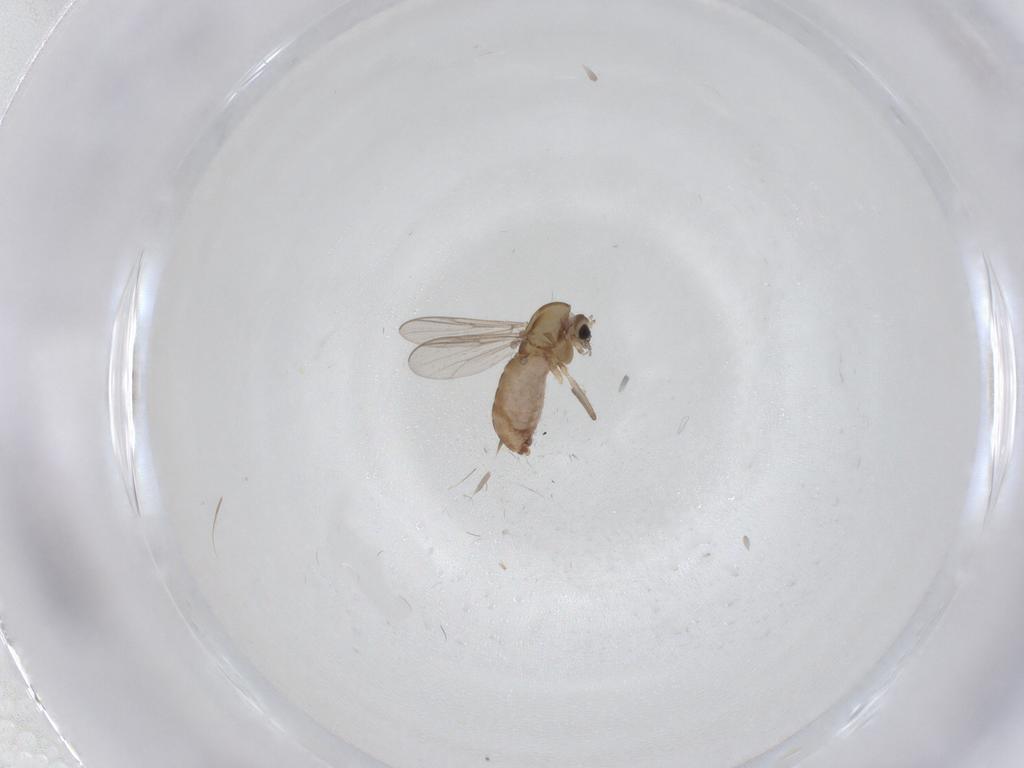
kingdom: Animalia
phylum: Arthropoda
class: Insecta
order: Diptera
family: Chironomidae
